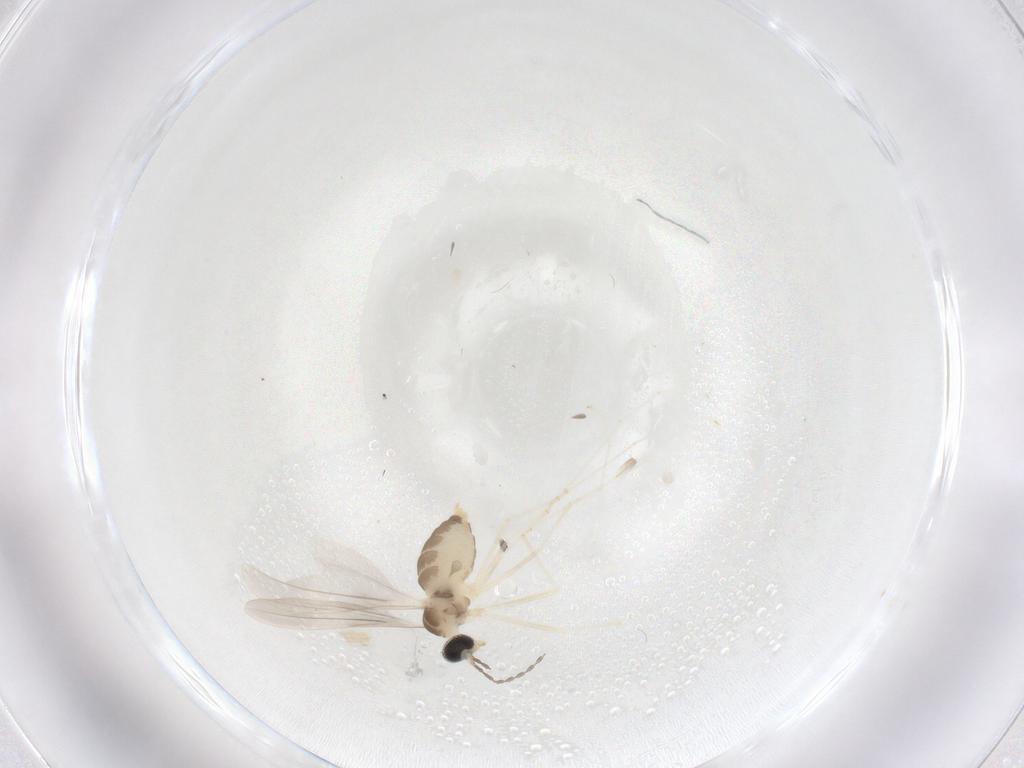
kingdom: Animalia
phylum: Arthropoda
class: Insecta
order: Diptera
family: Cecidomyiidae
